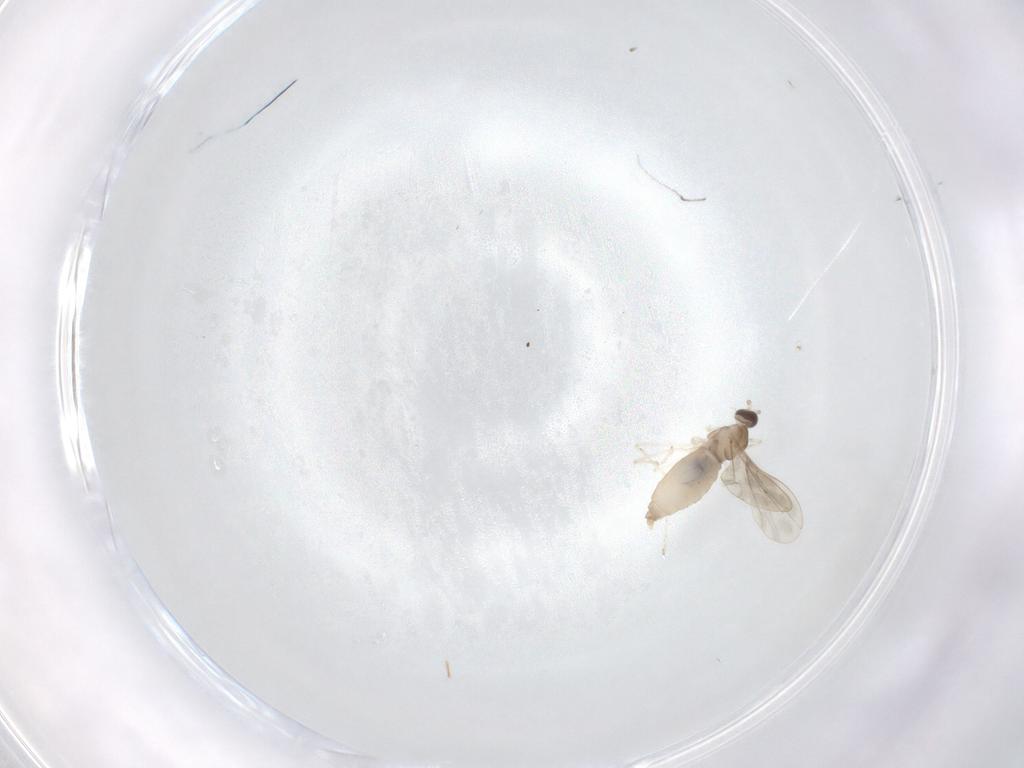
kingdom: Animalia
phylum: Arthropoda
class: Insecta
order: Diptera
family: Cecidomyiidae
